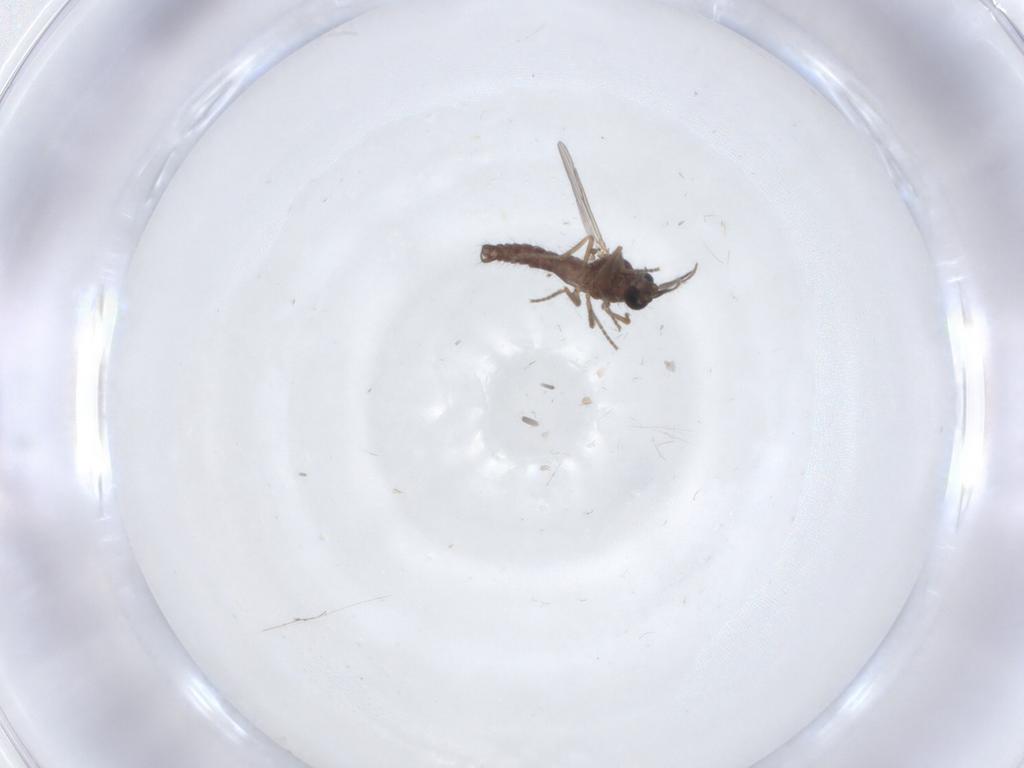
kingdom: Animalia
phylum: Arthropoda
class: Insecta
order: Diptera
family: Ceratopogonidae
